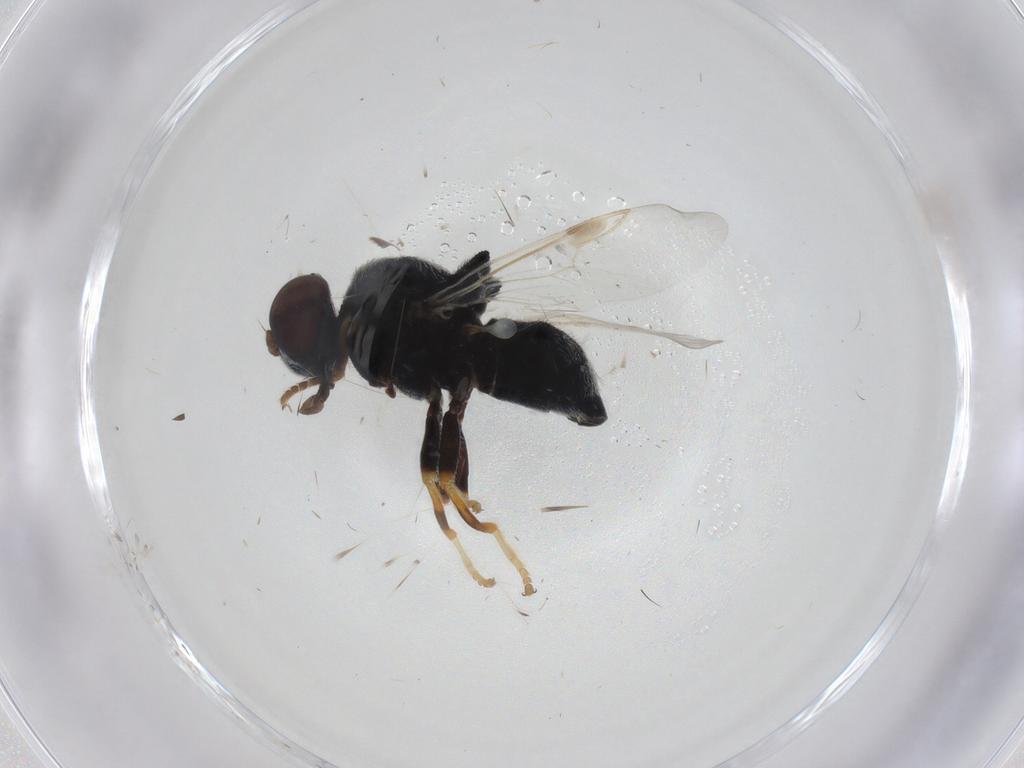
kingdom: Animalia
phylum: Arthropoda
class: Insecta
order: Diptera
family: Stratiomyidae
